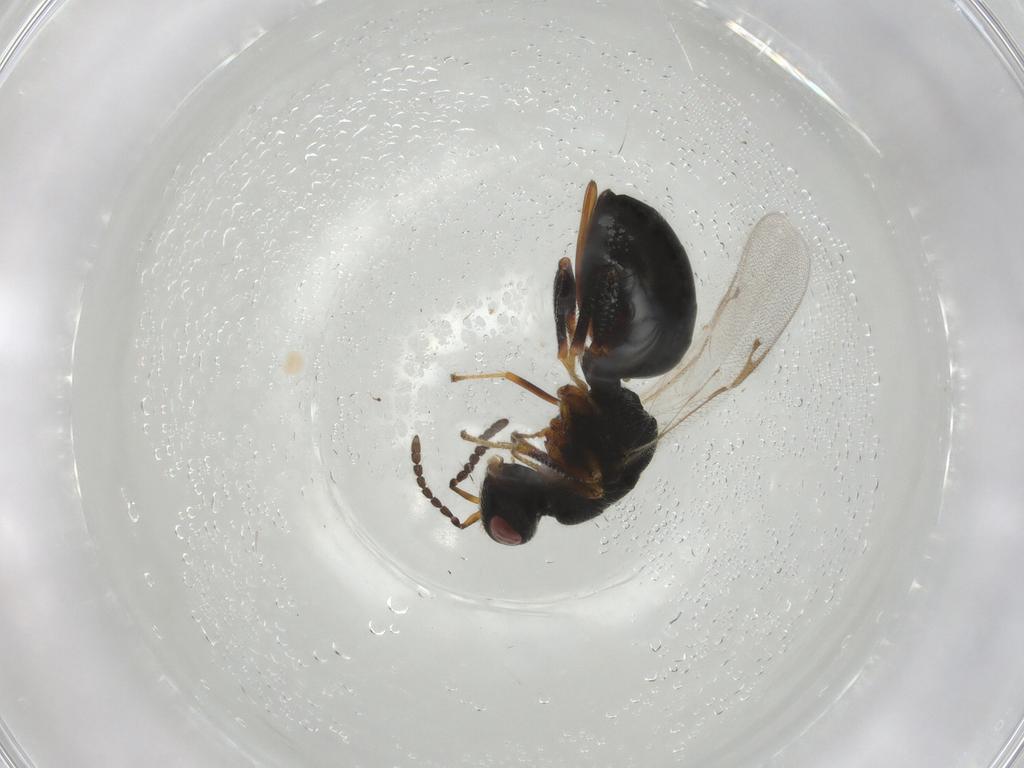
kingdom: Animalia
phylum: Arthropoda
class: Insecta
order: Hymenoptera
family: Eurytomidae
